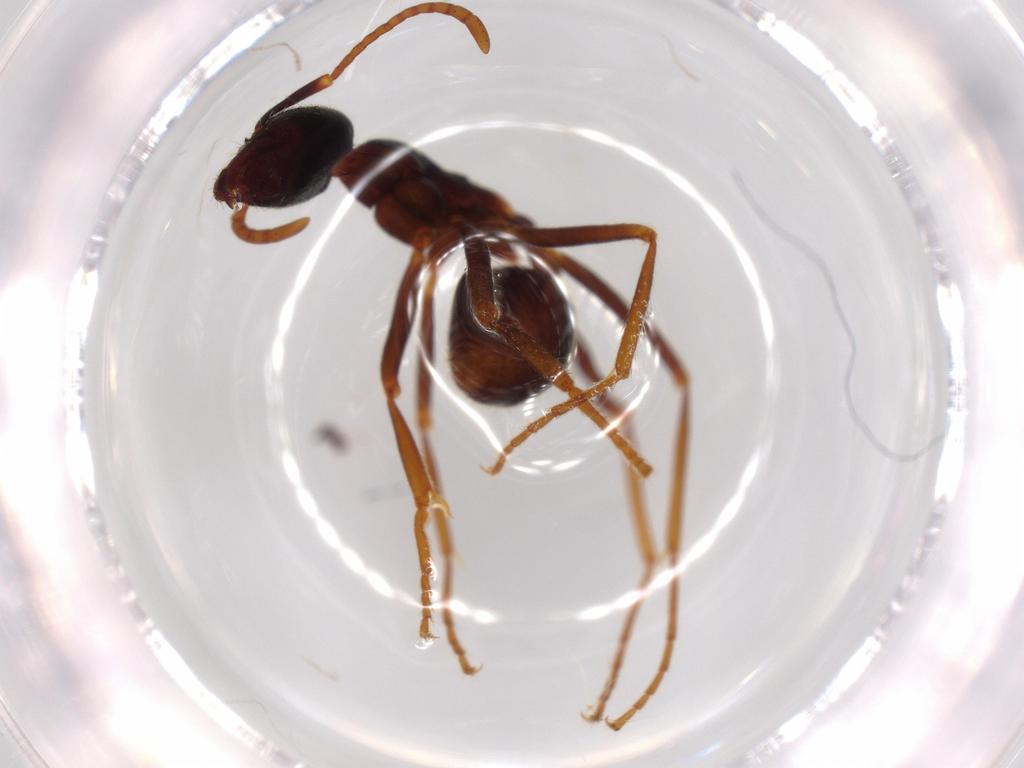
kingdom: Animalia
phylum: Arthropoda
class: Insecta
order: Hymenoptera
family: Formicidae
